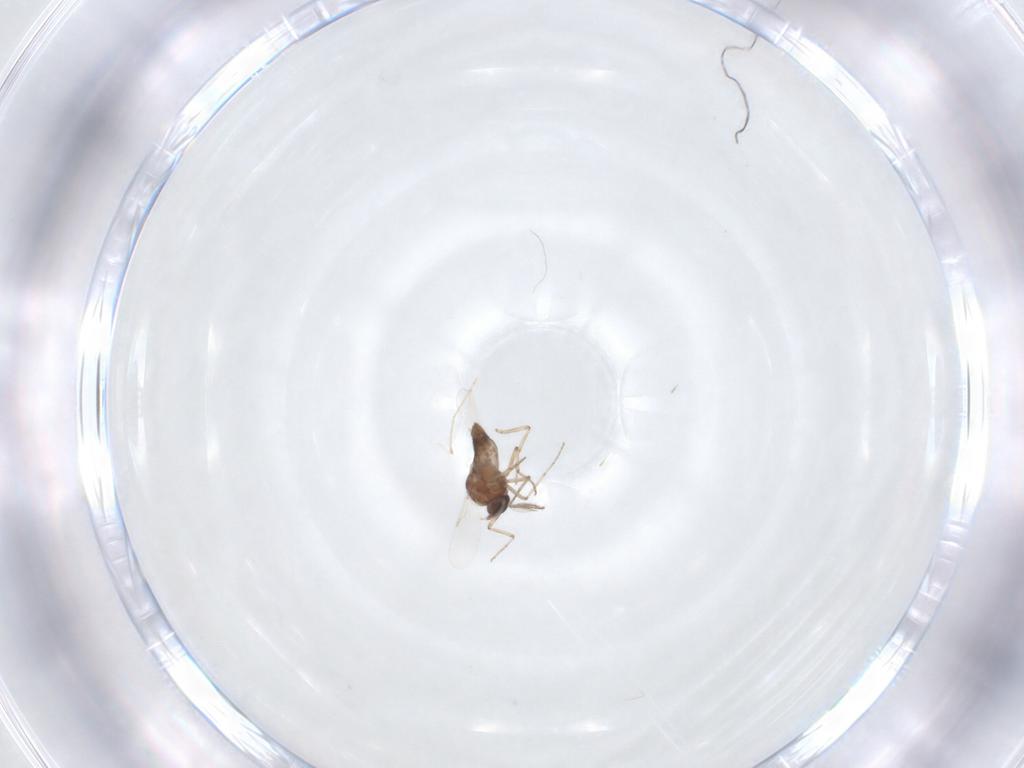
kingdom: Animalia
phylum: Arthropoda
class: Insecta
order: Diptera
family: Ceratopogonidae
